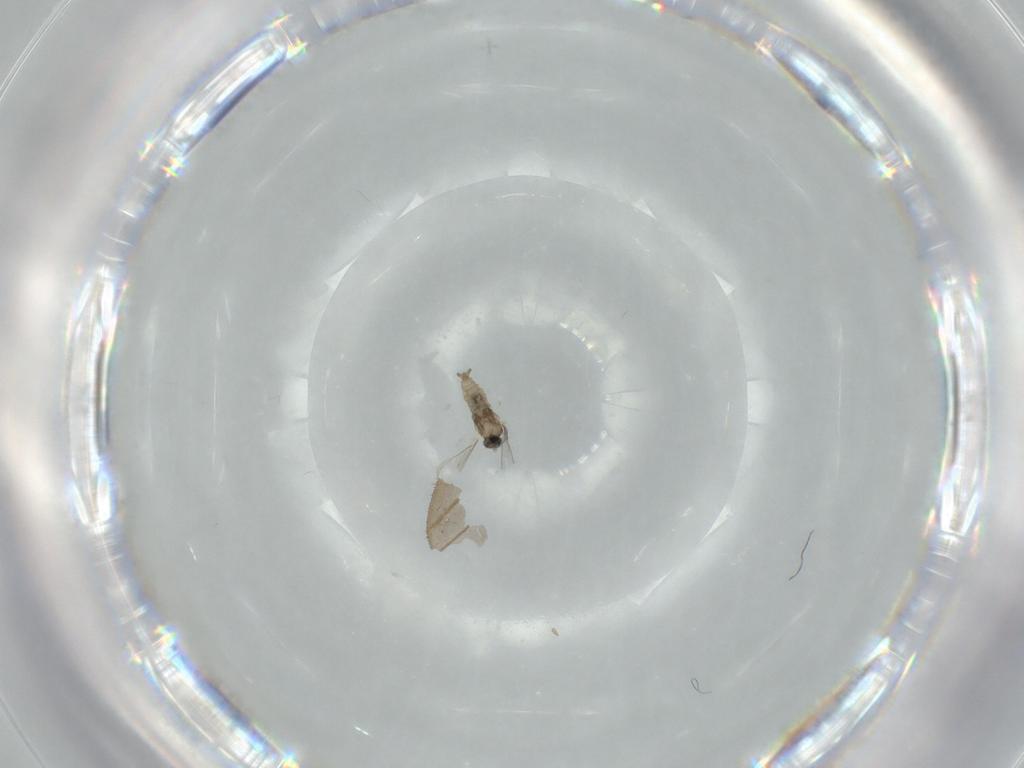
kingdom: Animalia
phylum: Arthropoda
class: Insecta
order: Diptera
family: Cecidomyiidae
